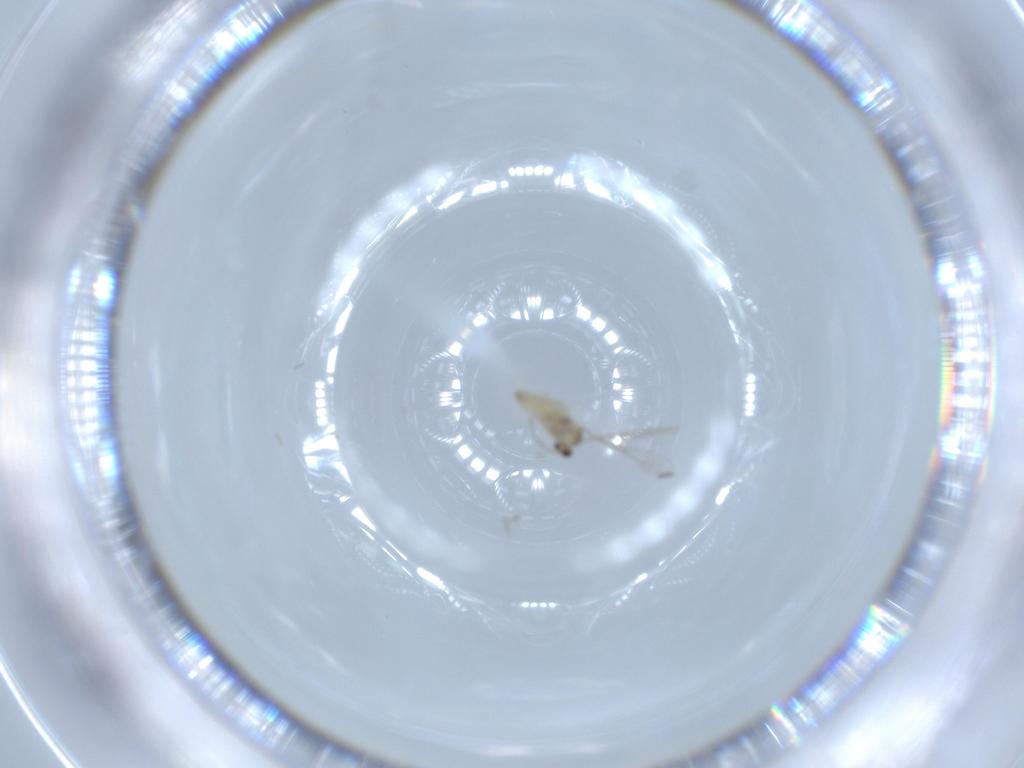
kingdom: Animalia
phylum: Arthropoda
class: Insecta
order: Diptera
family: Cecidomyiidae
